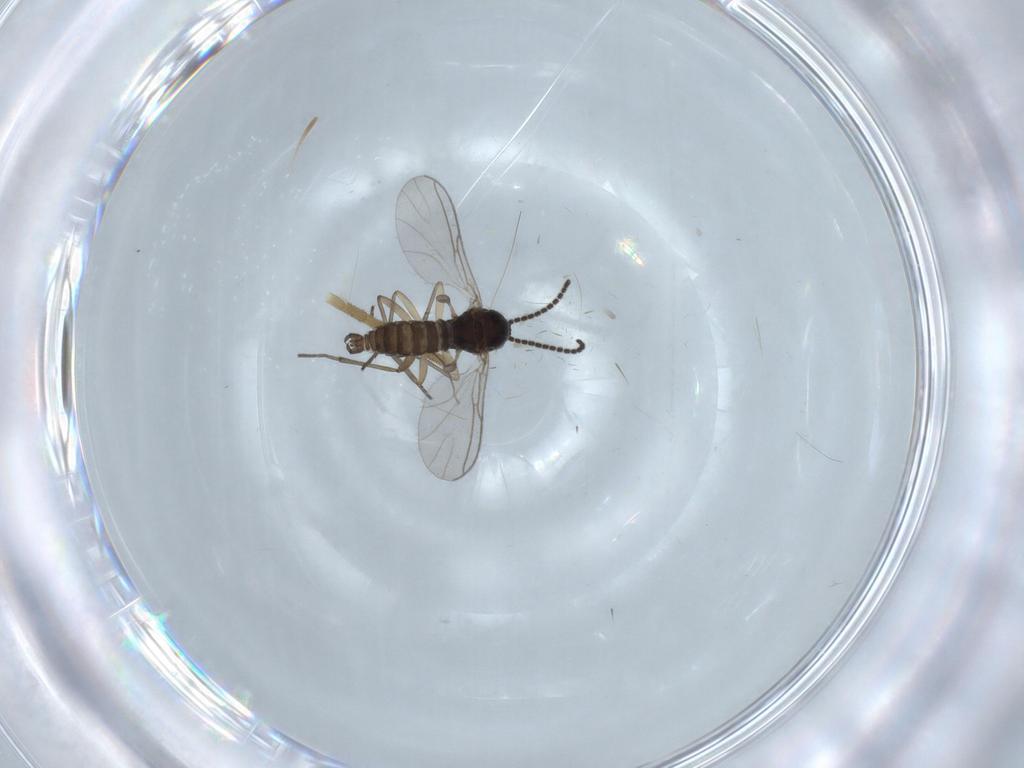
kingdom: Animalia
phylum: Arthropoda
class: Insecta
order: Diptera
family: Sciaridae
